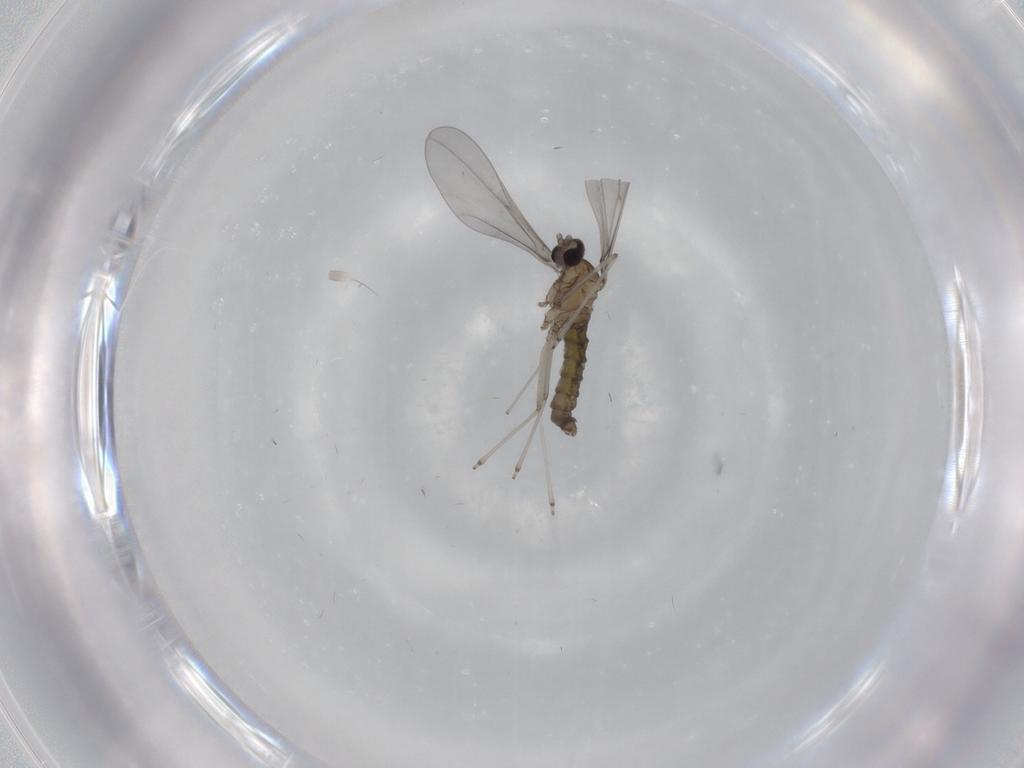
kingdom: Animalia
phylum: Arthropoda
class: Insecta
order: Diptera
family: Cecidomyiidae
